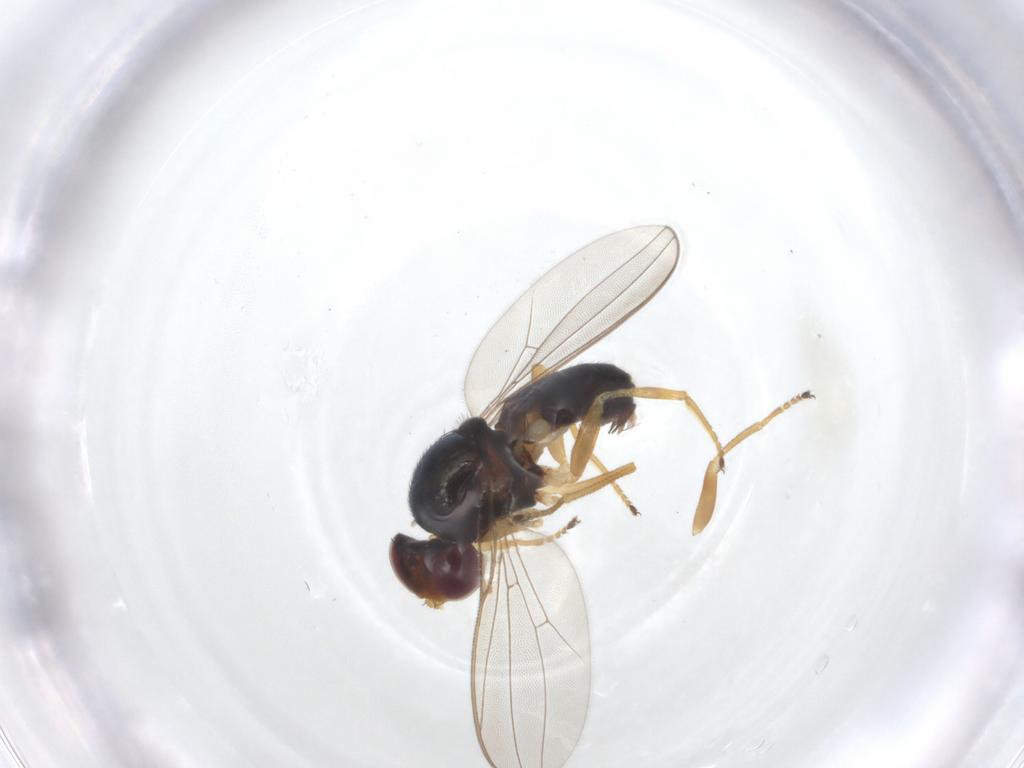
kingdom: Animalia
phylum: Arthropoda
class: Insecta
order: Diptera
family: Asteiidae
